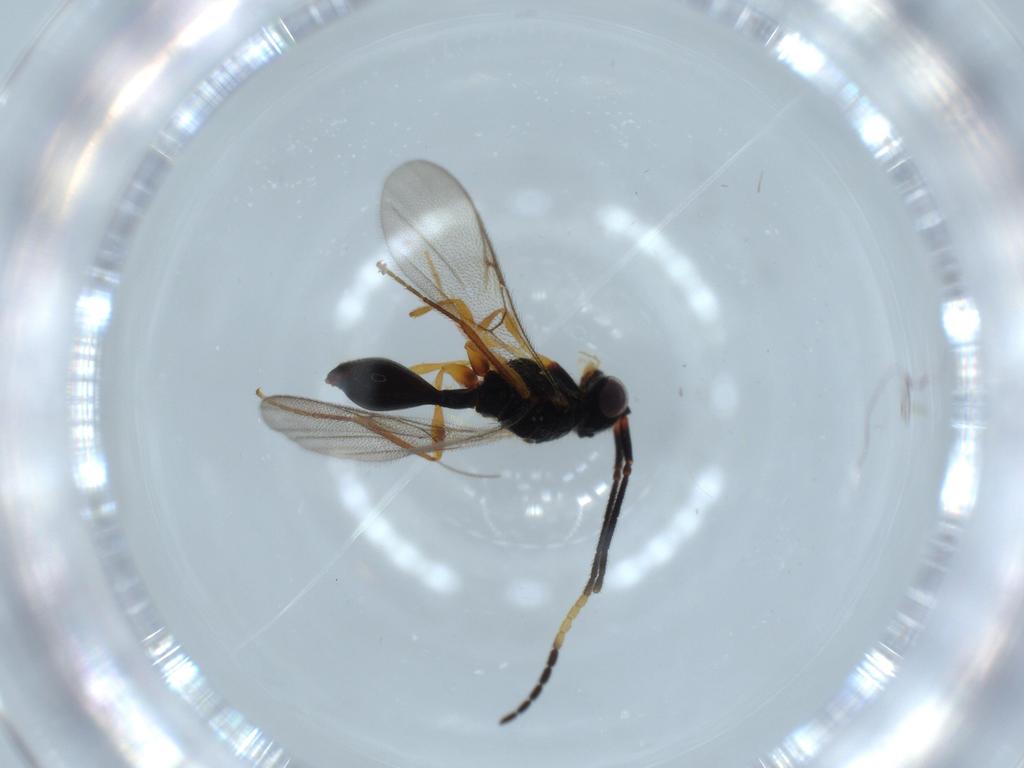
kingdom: Animalia
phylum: Arthropoda
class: Insecta
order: Hymenoptera
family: Diapriidae
